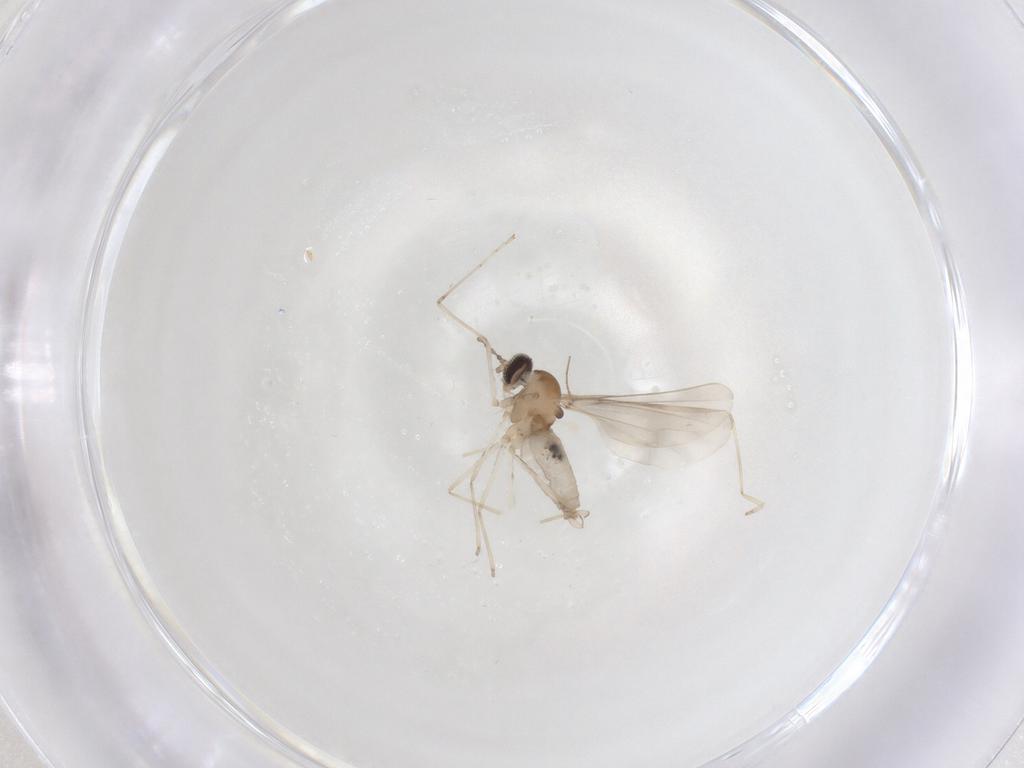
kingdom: Animalia
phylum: Arthropoda
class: Insecta
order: Diptera
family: Cecidomyiidae
